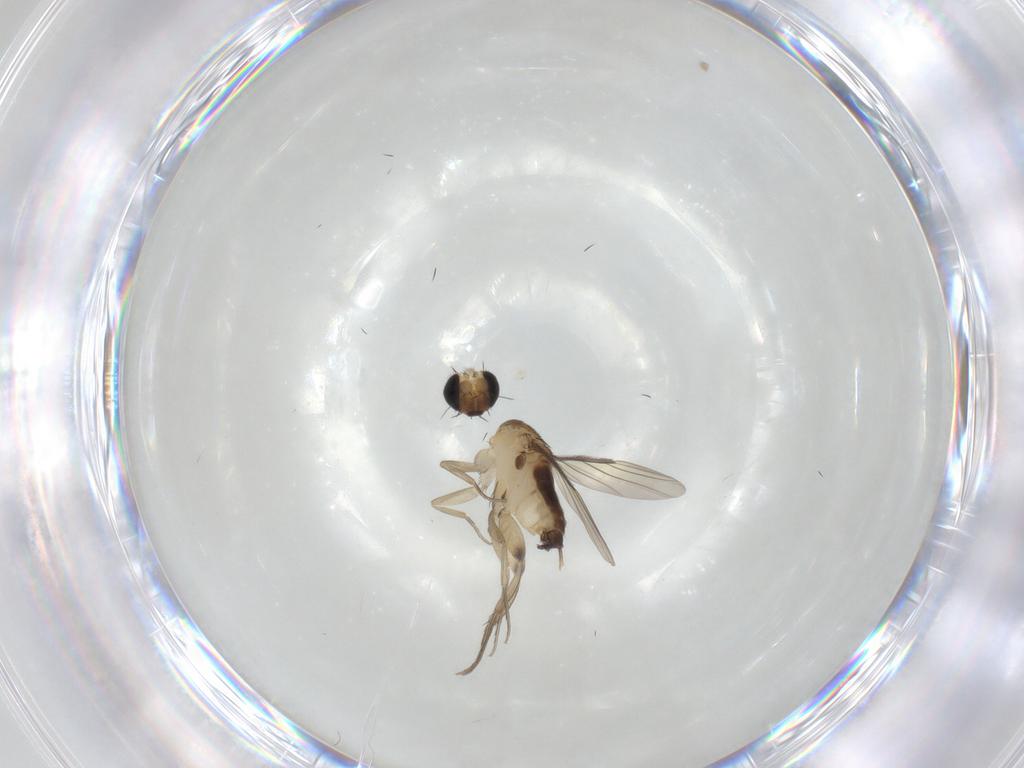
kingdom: Animalia
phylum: Arthropoda
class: Insecta
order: Diptera
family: Phoridae
